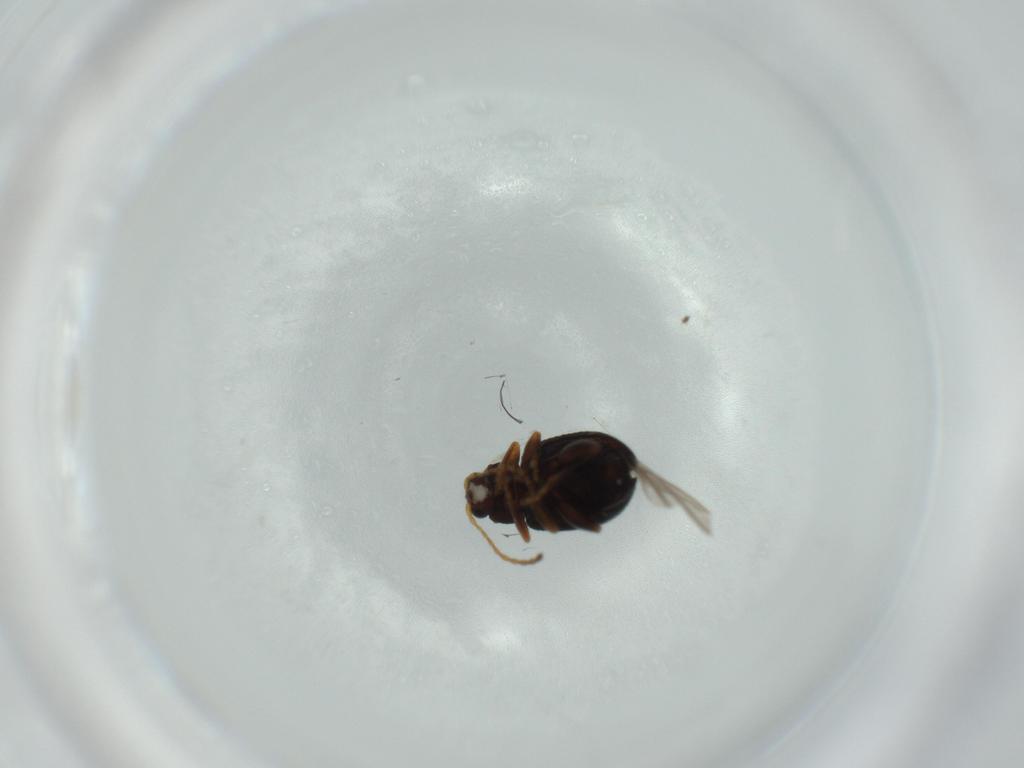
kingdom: Animalia
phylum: Arthropoda
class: Insecta
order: Coleoptera
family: Chrysomelidae
